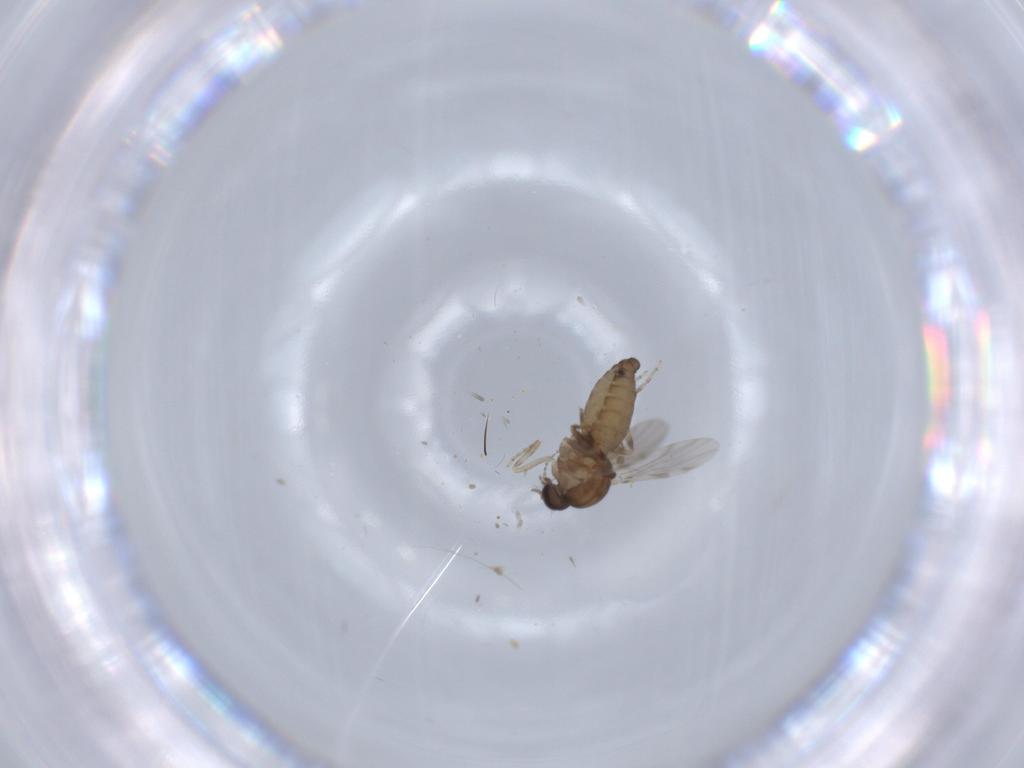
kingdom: Animalia
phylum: Arthropoda
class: Insecta
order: Diptera
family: Ceratopogonidae
